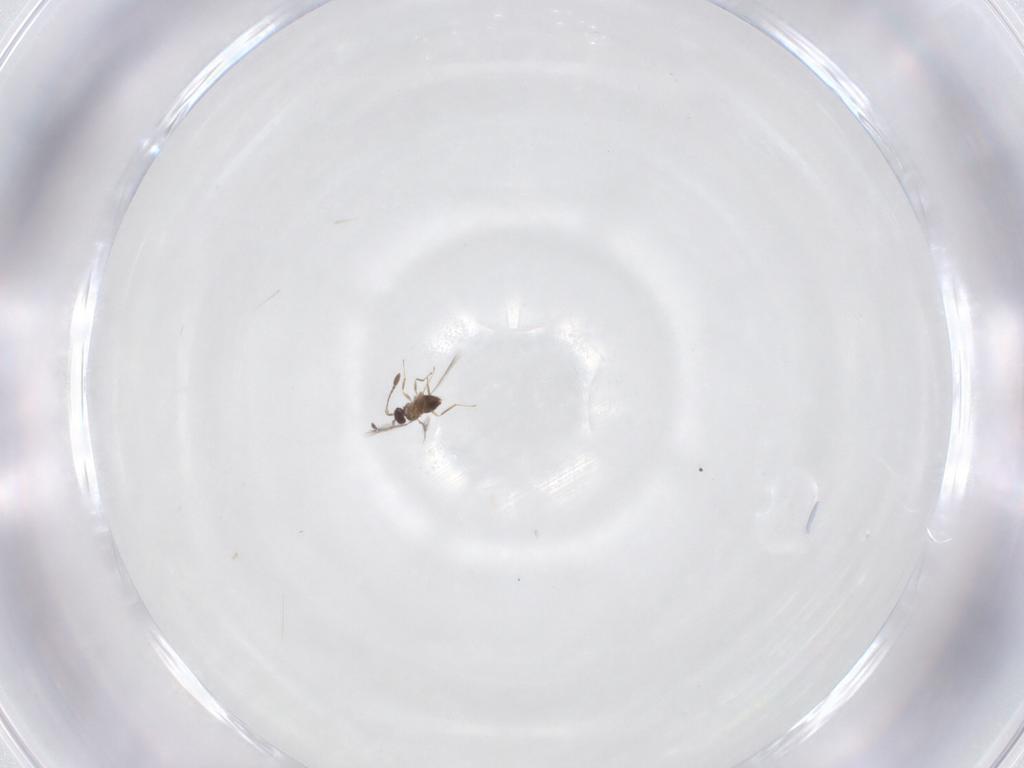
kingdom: Animalia
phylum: Arthropoda
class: Insecta
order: Hymenoptera
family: Mymaridae
